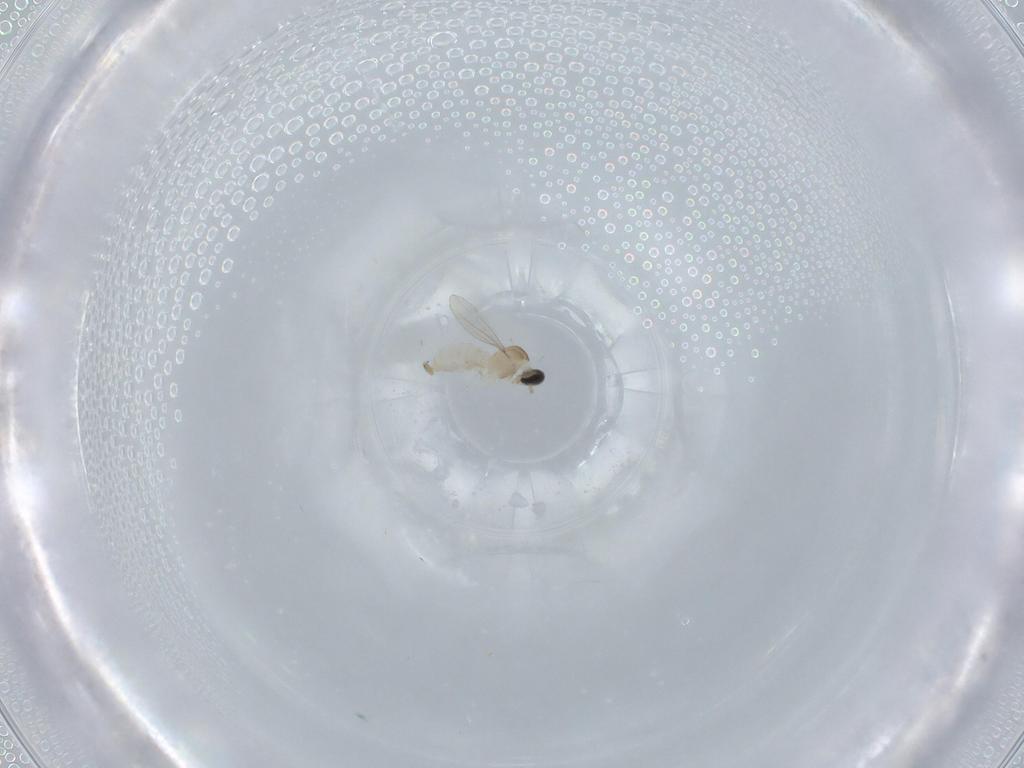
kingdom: Animalia
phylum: Arthropoda
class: Insecta
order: Diptera
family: Cecidomyiidae
